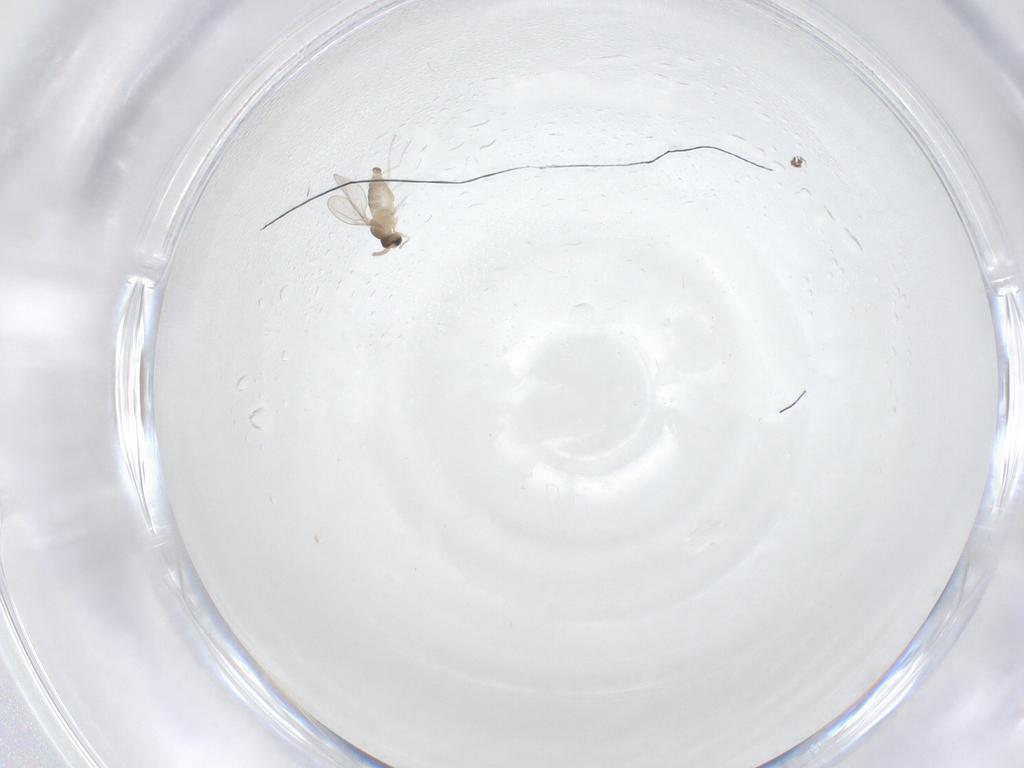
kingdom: Animalia
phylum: Arthropoda
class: Insecta
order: Diptera
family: Cecidomyiidae
